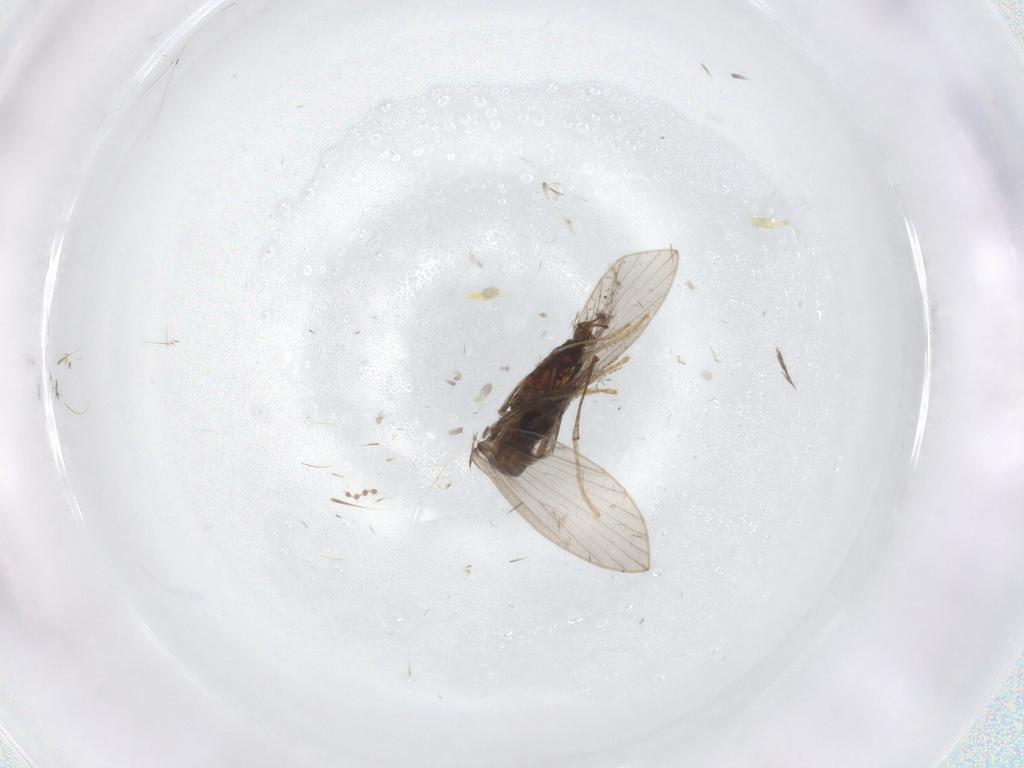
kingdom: Animalia
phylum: Arthropoda
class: Insecta
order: Diptera
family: Psychodidae
